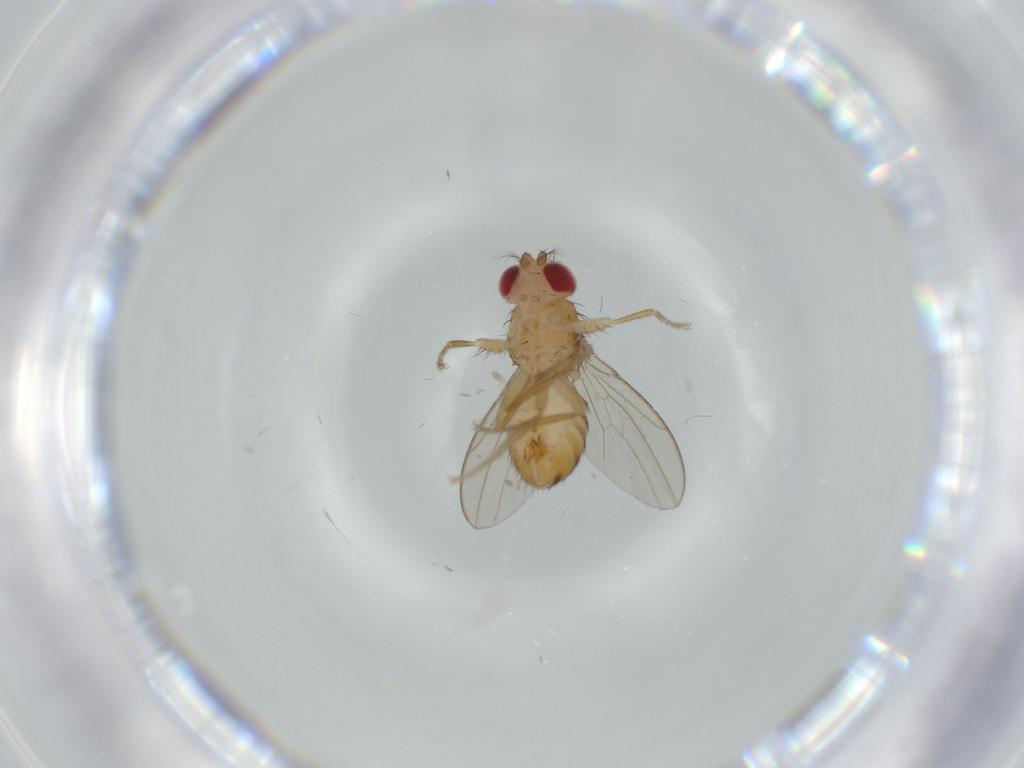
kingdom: Animalia
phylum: Arthropoda
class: Insecta
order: Diptera
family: Drosophilidae
